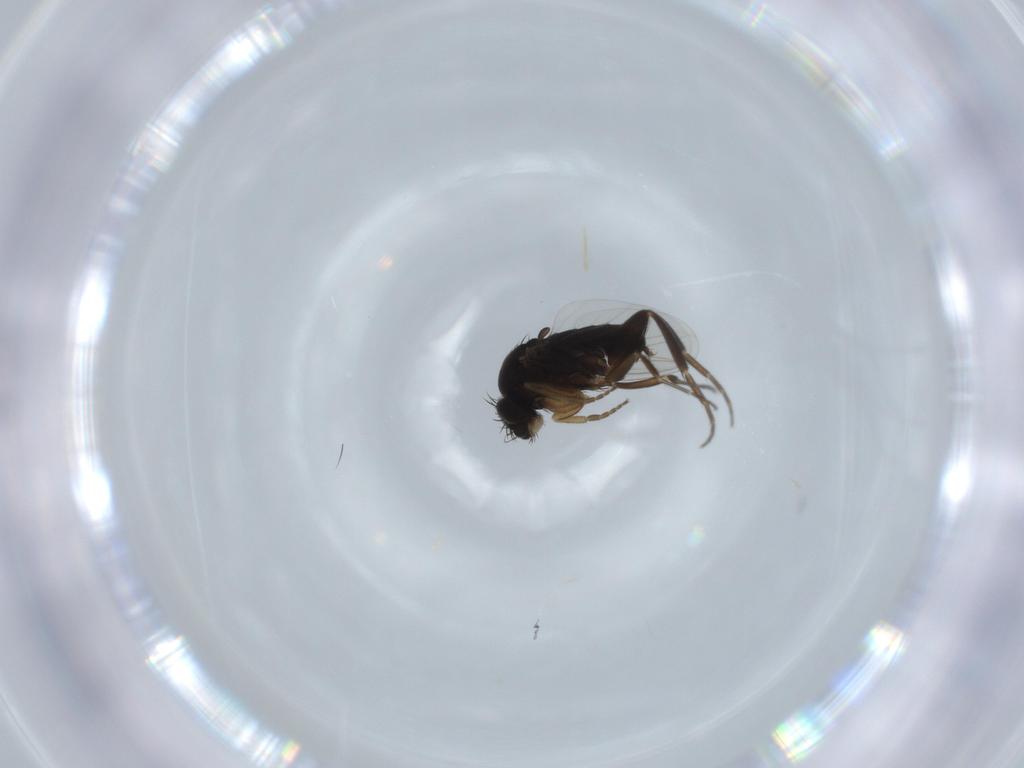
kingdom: Animalia
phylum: Arthropoda
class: Insecta
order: Diptera
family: Phoridae
